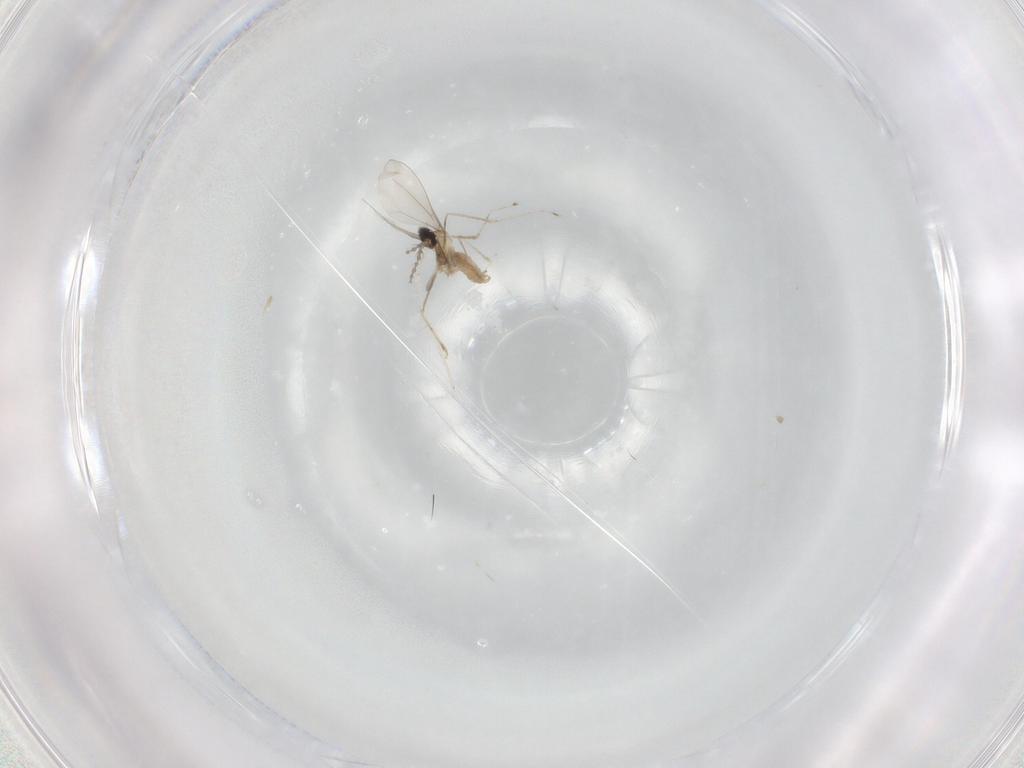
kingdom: Animalia
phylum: Arthropoda
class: Insecta
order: Diptera
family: Cecidomyiidae
